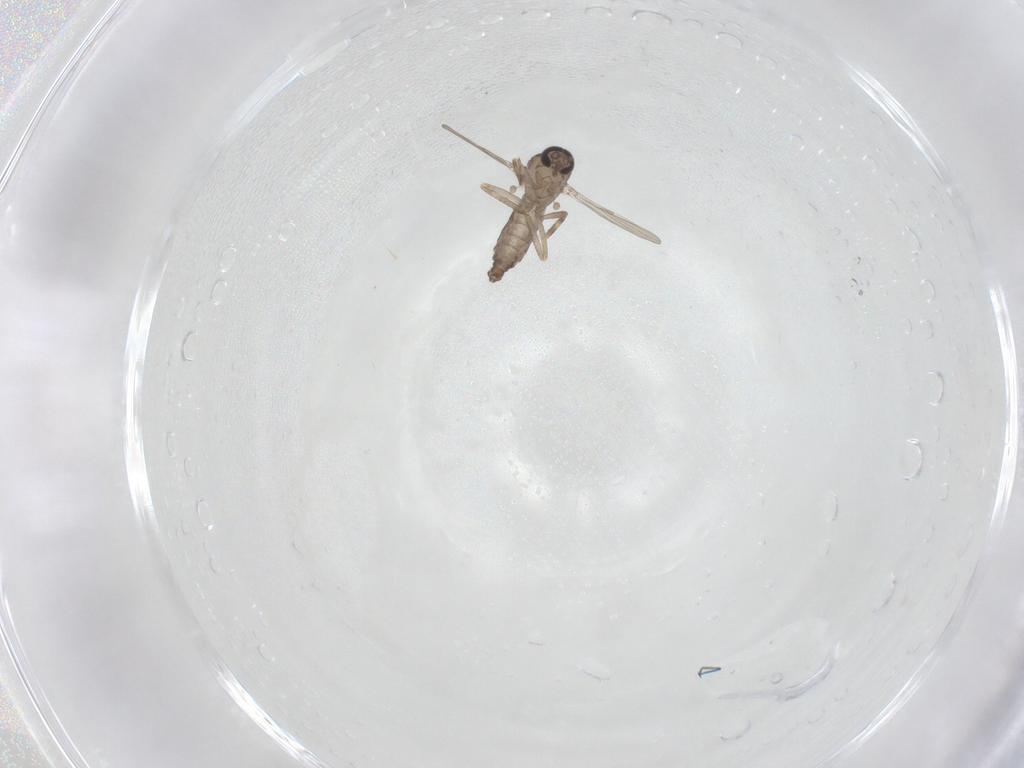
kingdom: Animalia
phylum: Arthropoda
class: Insecta
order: Diptera
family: Ceratopogonidae
